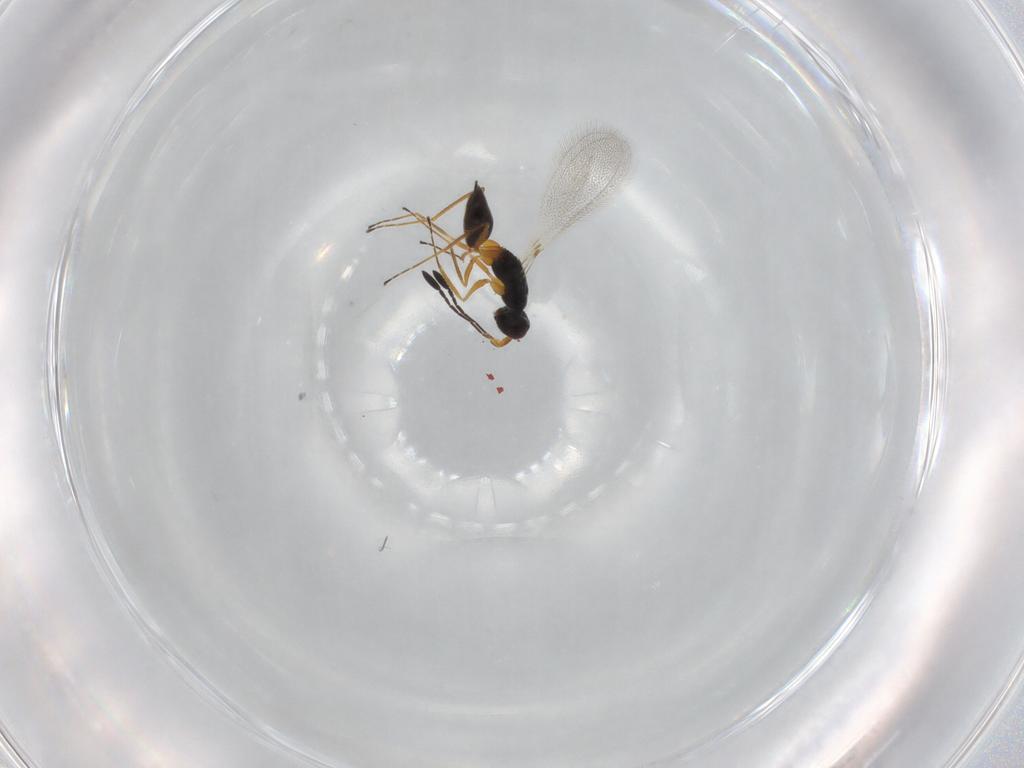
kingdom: Animalia
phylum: Arthropoda
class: Insecta
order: Hymenoptera
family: Mymaridae
